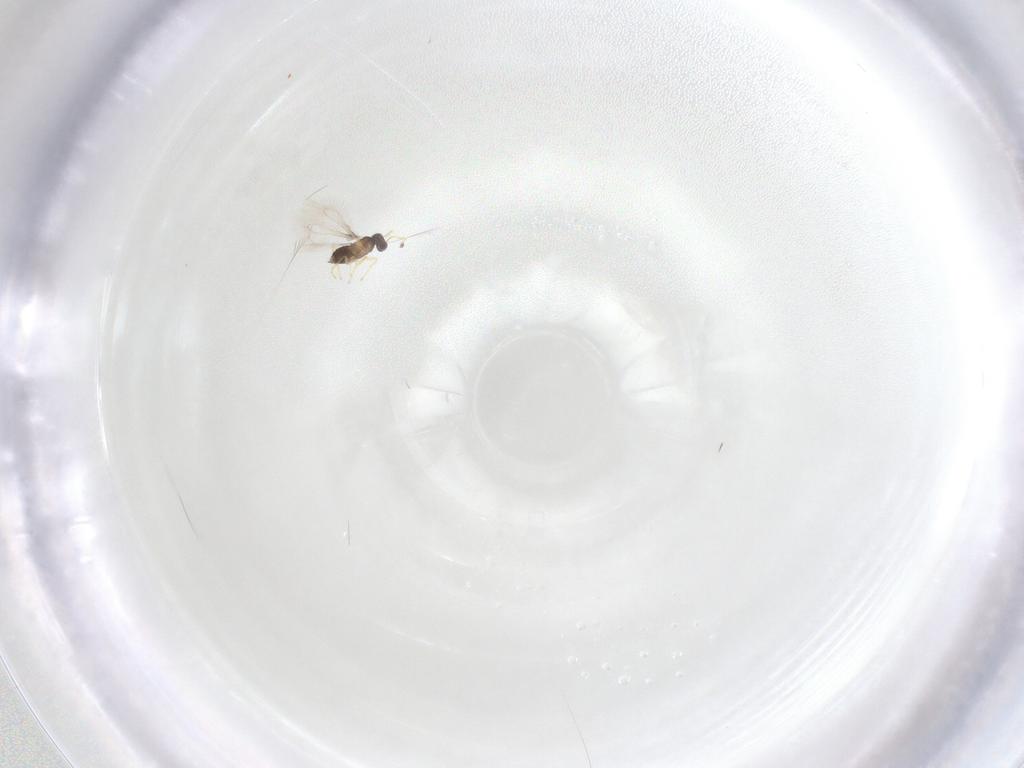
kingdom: Animalia
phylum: Arthropoda
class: Insecta
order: Hymenoptera
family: Mymaridae
